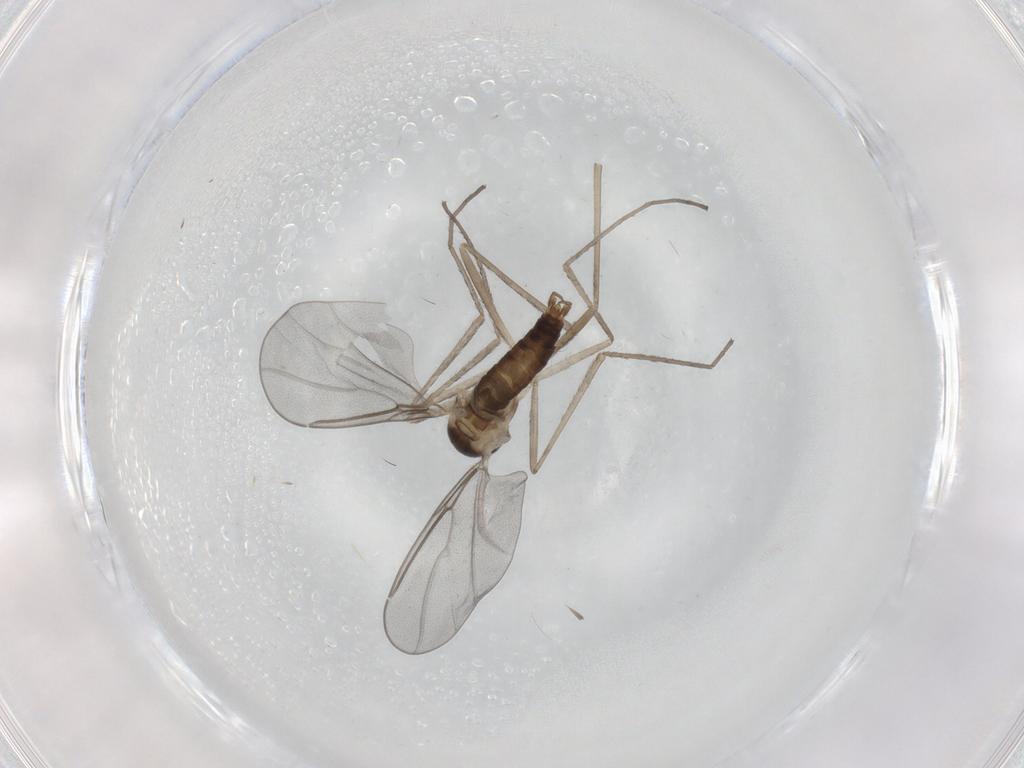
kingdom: Animalia
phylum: Arthropoda
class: Insecta
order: Diptera
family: Cecidomyiidae
